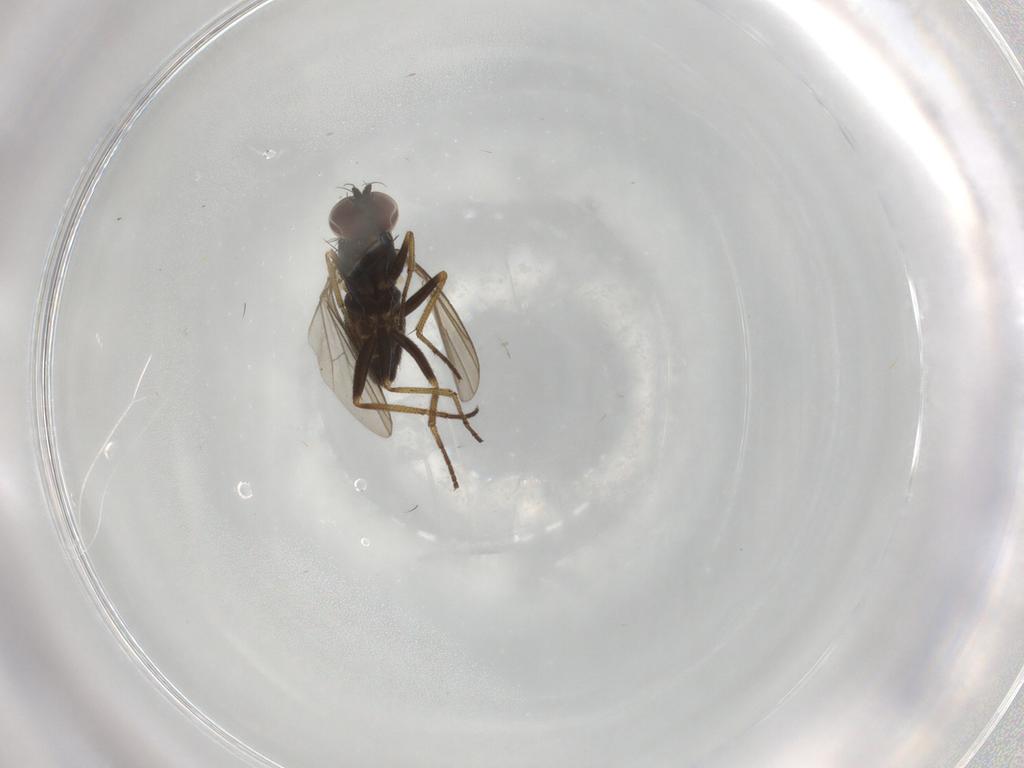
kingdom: Animalia
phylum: Arthropoda
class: Insecta
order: Diptera
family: Dolichopodidae
